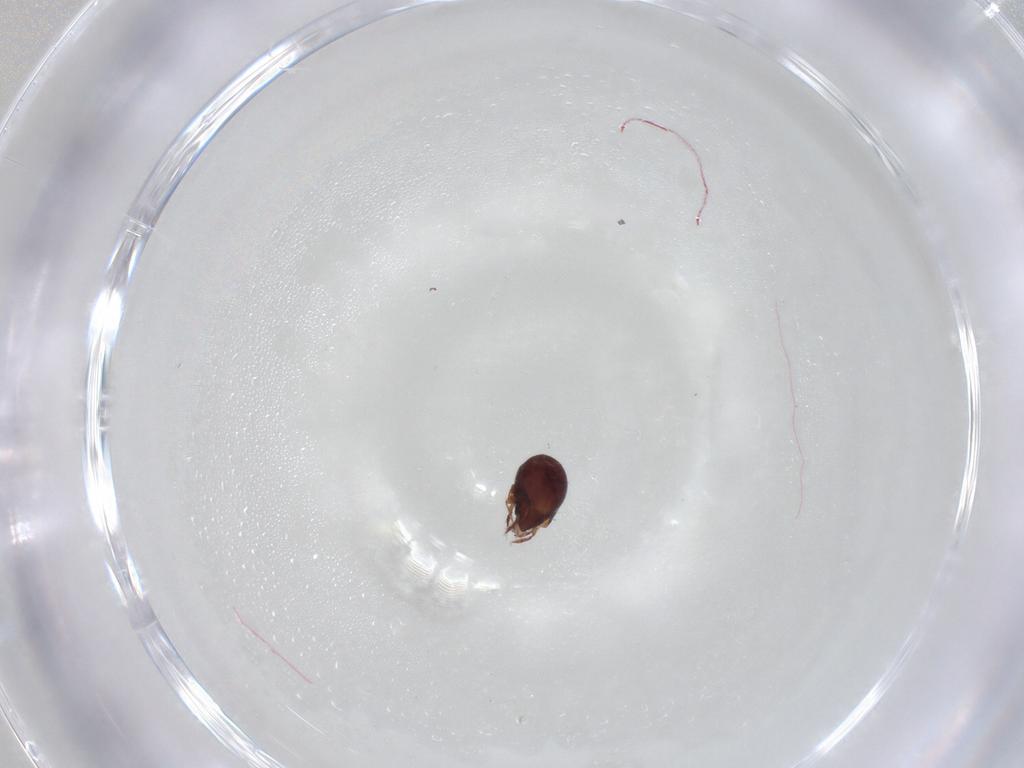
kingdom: Animalia
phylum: Arthropoda
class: Arachnida
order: Sarcoptiformes
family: Humerobatidae
